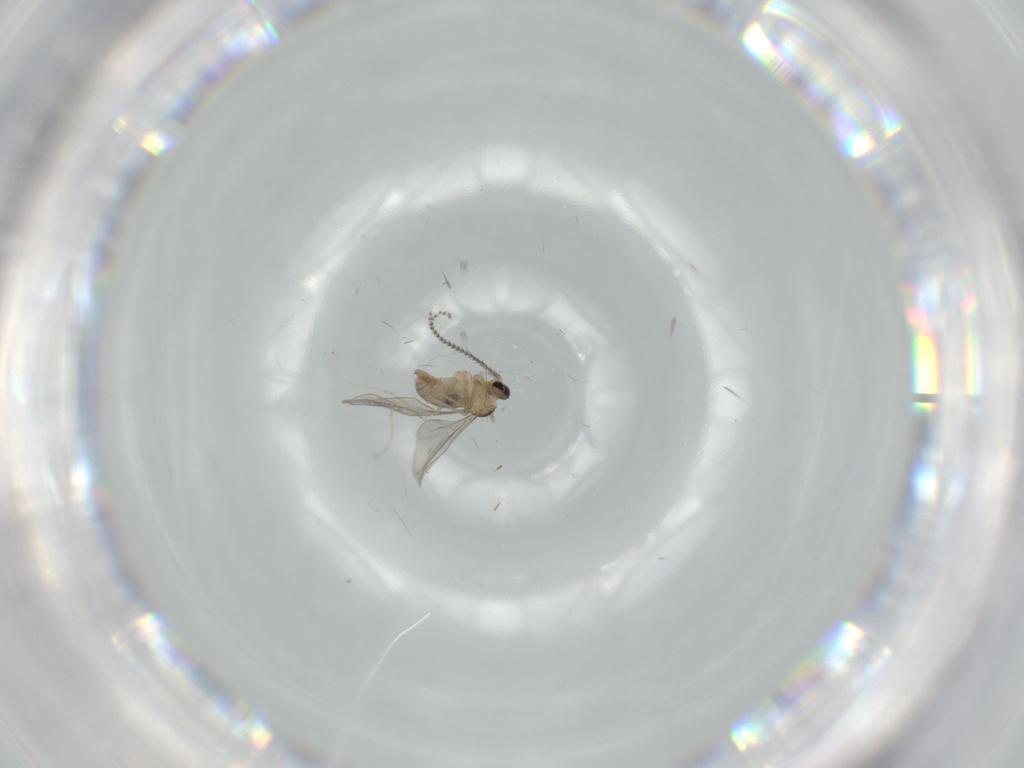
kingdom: Animalia
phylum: Arthropoda
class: Insecta
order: Diptera
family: Cecidomyiidae
